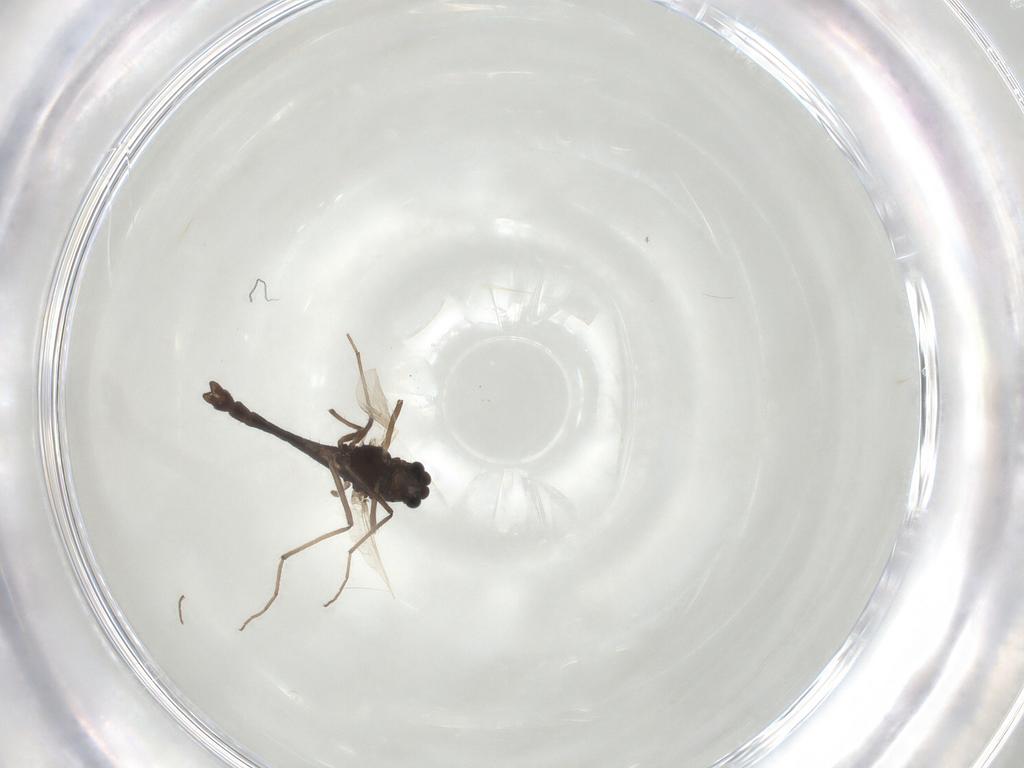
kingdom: Animalia
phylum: Arthropoda
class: Insecta
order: Diptera
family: Chironomidae
